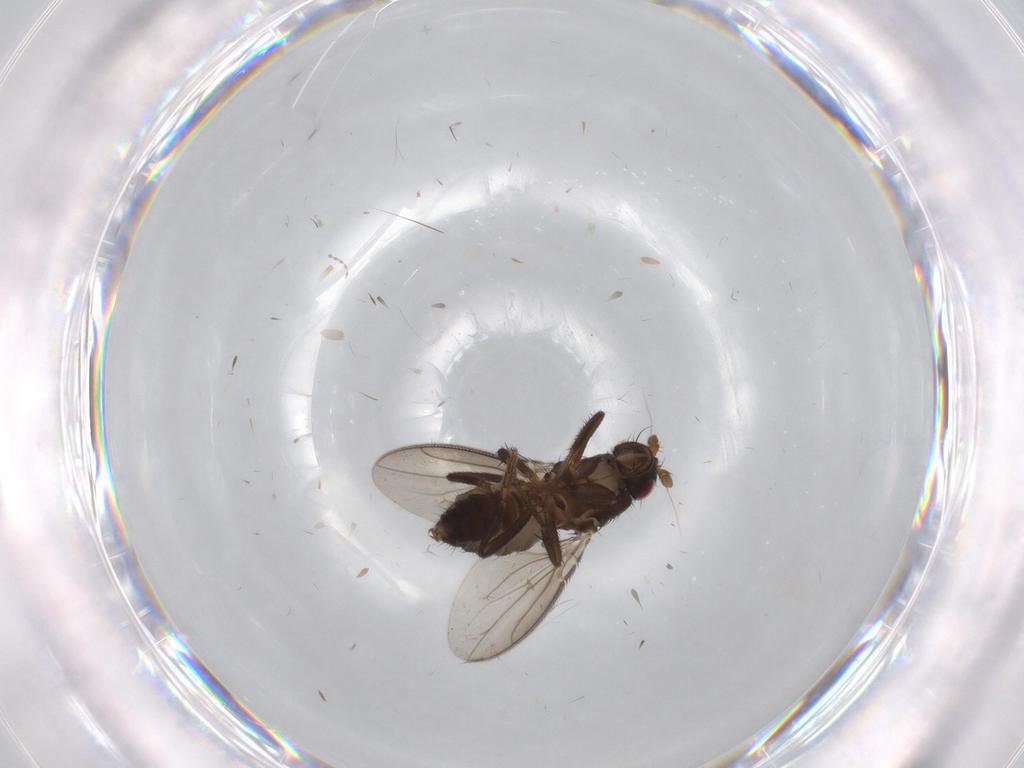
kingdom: Animalia
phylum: Arthropoda
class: Insecta
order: Diptera
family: Cecidomyiidae
